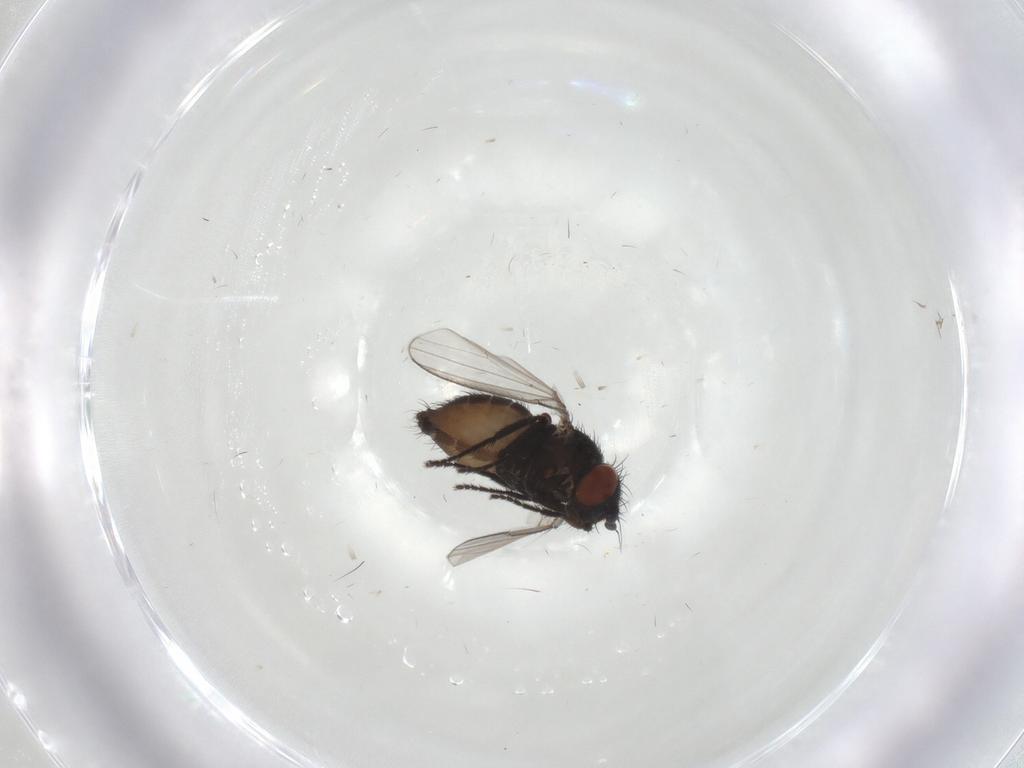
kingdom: Animalia
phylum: Arthropoda
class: Insecta
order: Diptera
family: Milichiidae
